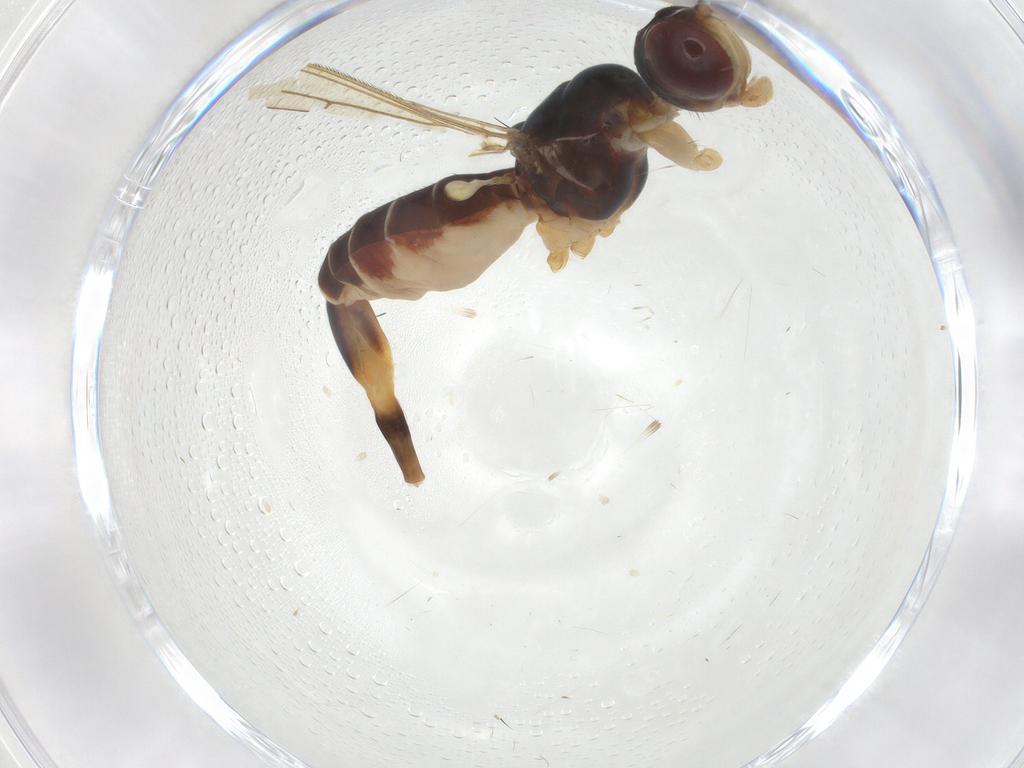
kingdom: Animalia
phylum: Arthropoda
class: Insecta
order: Diptera
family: Micropezidae
